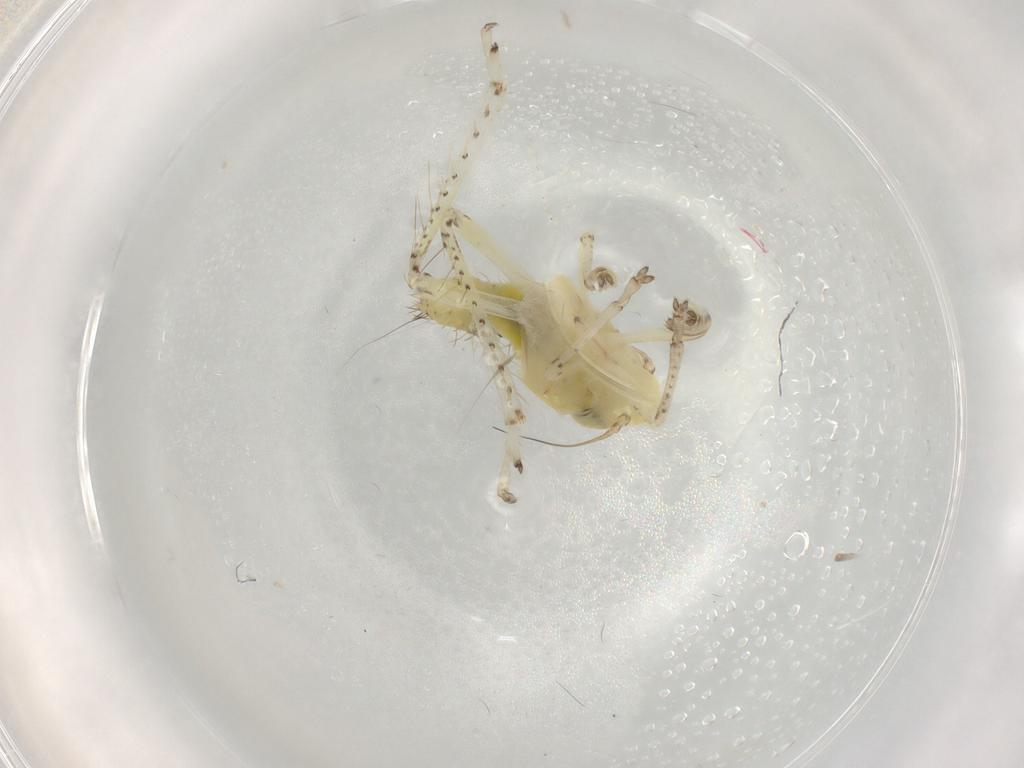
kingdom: Animalia
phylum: Arthropoda
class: Insecta
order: Hemiptera
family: Cicadellidae
